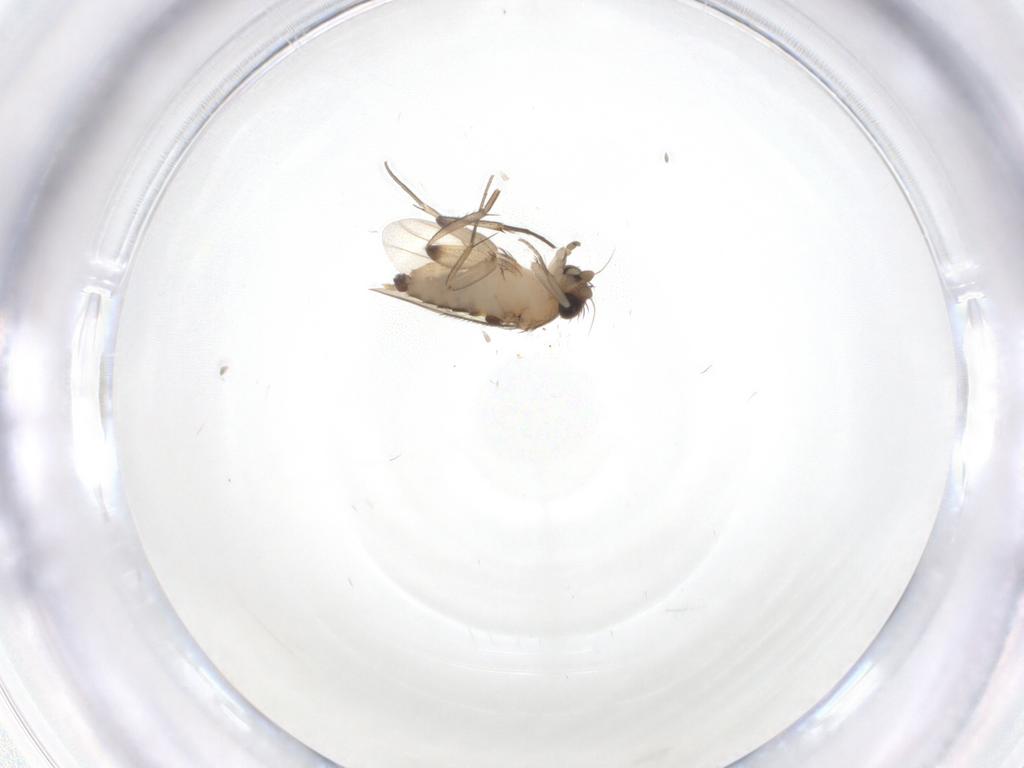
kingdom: Animalia
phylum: Arthropoda
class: Insecta
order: Diptera
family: Phoridae
